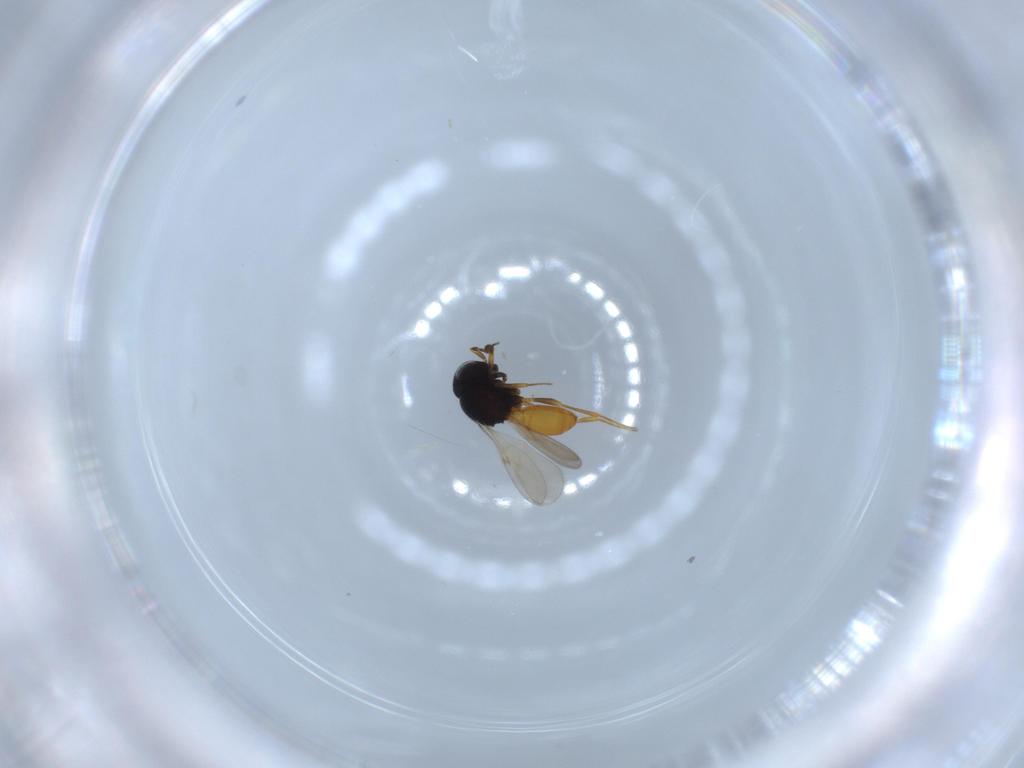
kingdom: Animalia
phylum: Arthropoda
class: Insecta
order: Hymenoptera
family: Scelionidae
